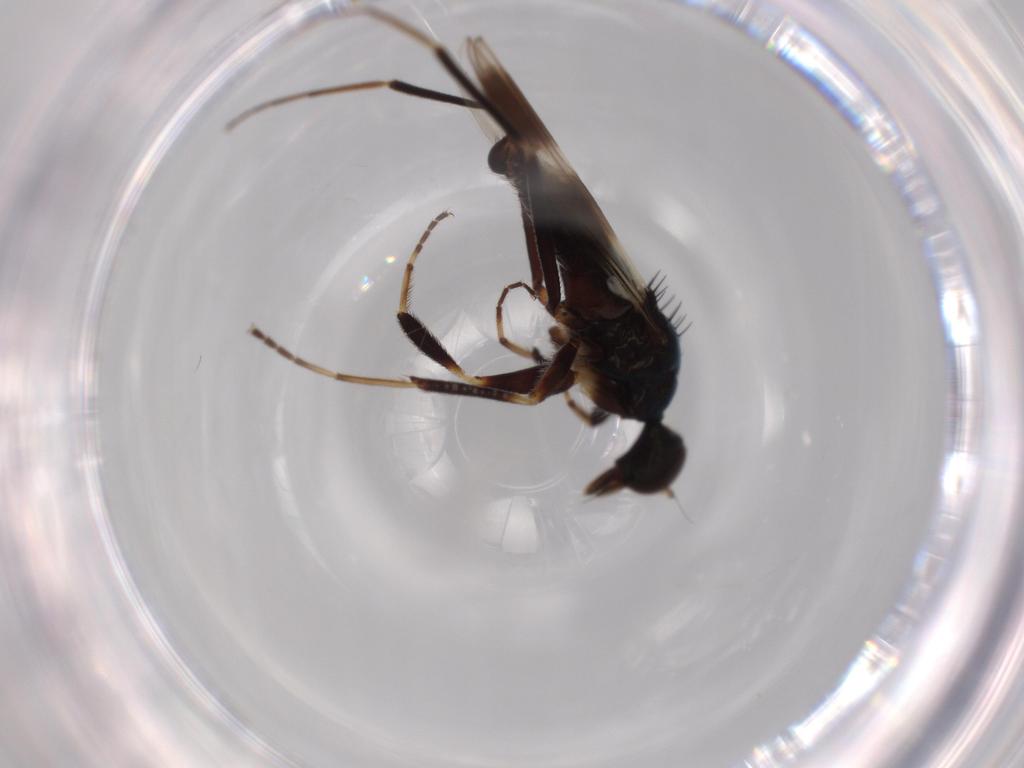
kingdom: Animalia
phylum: Arthropoda
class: Insecta
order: Diptera
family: Hybotidae
